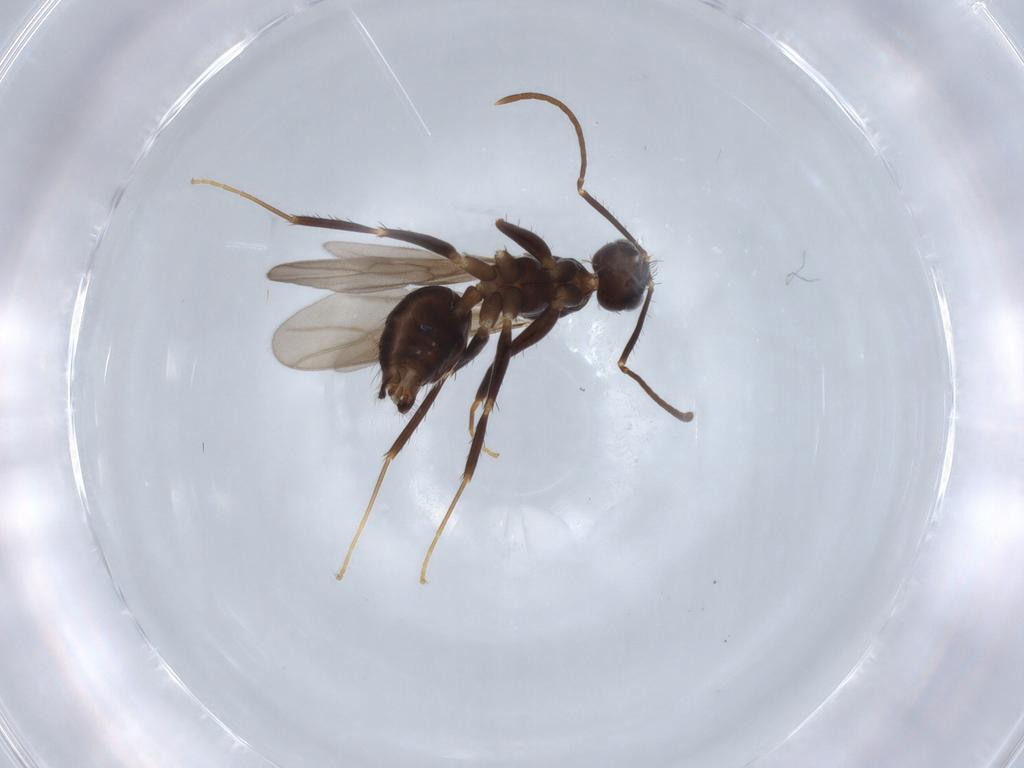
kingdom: Animalia
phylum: Arthropoda
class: Insecta
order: Hymenoptera
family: Formicidae
